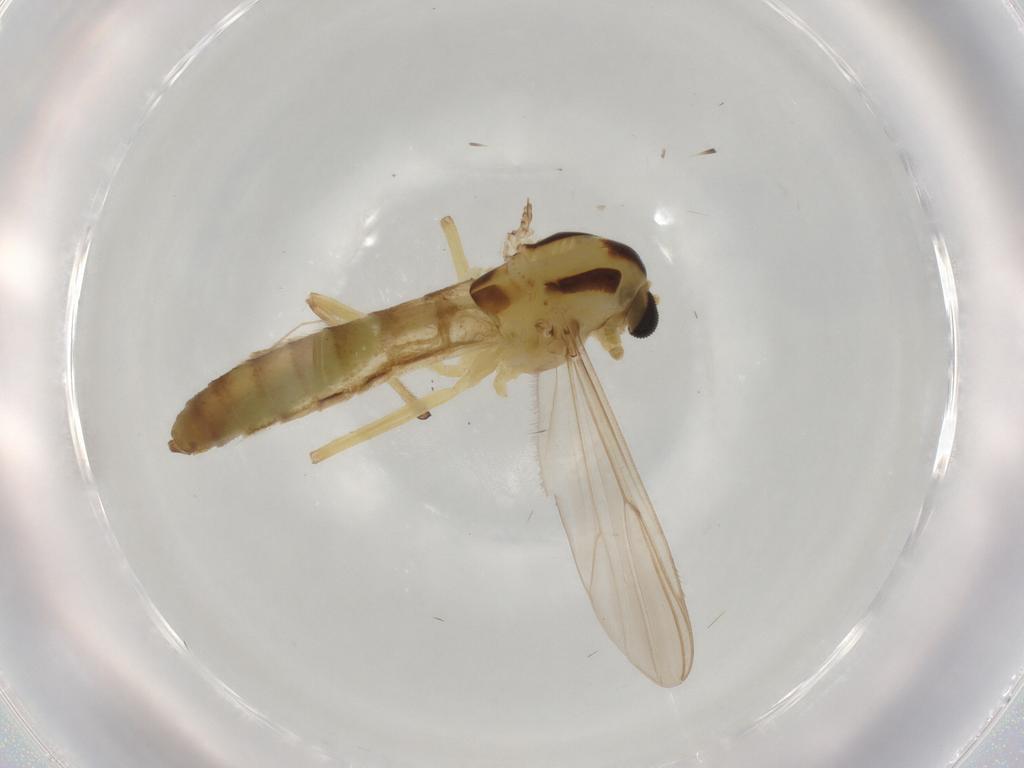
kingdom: Animalia
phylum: Arthropoda
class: Insecta
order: Diptera
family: Chironomidae
